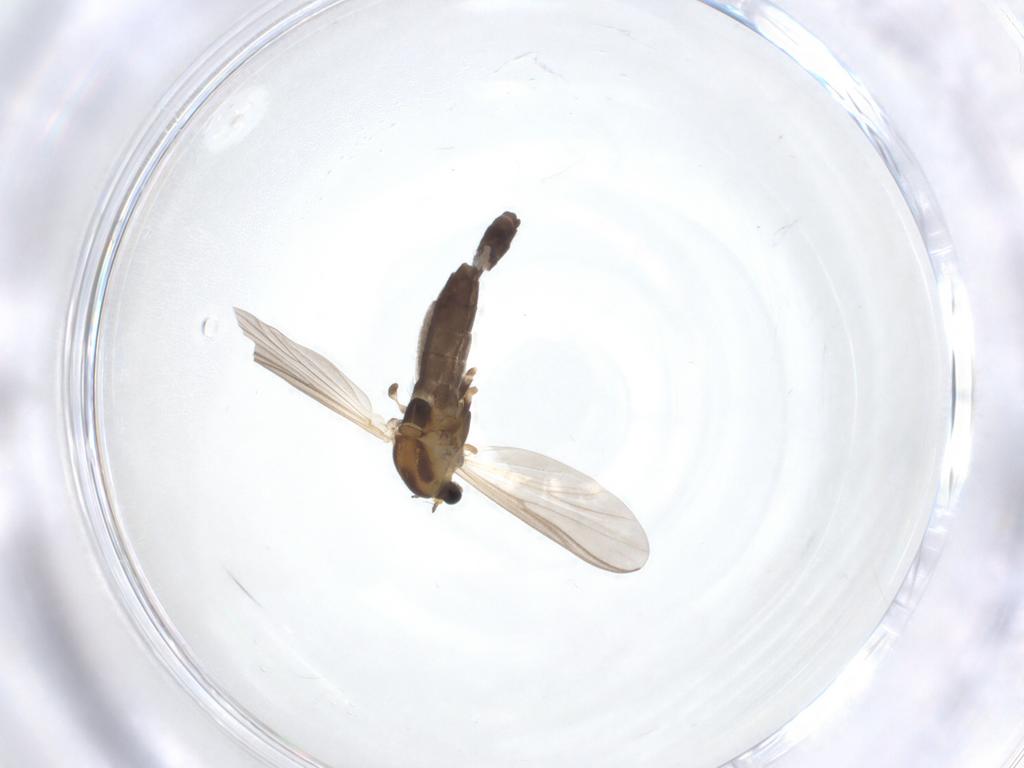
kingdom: Animalia
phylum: Arthropoda
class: Insecta
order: Diptera
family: Chironomidae
